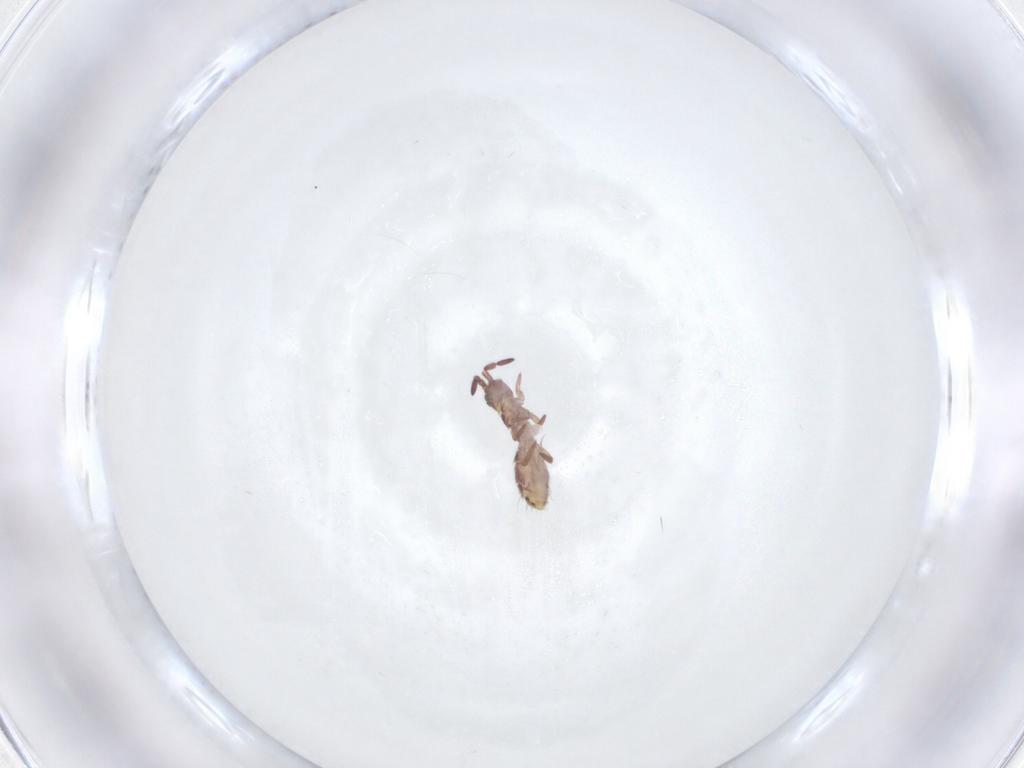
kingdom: Animalia
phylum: Arthropoda
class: Collembola
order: Entomobryomorpha
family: Isotomidae
